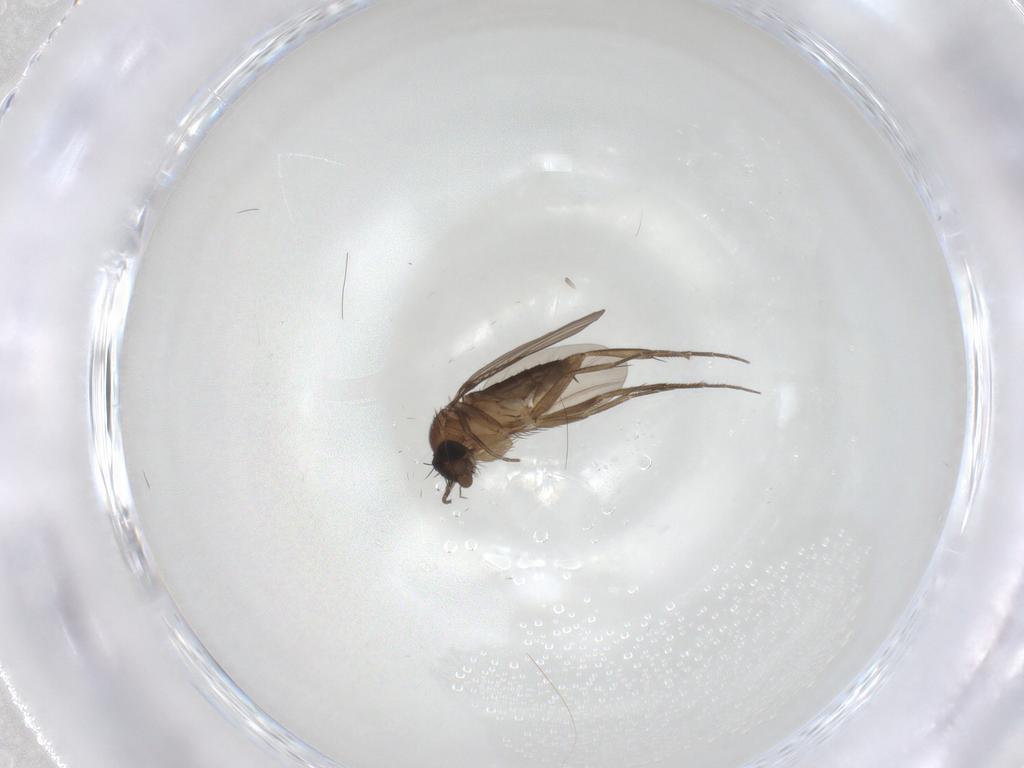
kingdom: Animalia
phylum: Arthropoda
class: Insecta
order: Diptera
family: Phoridae
